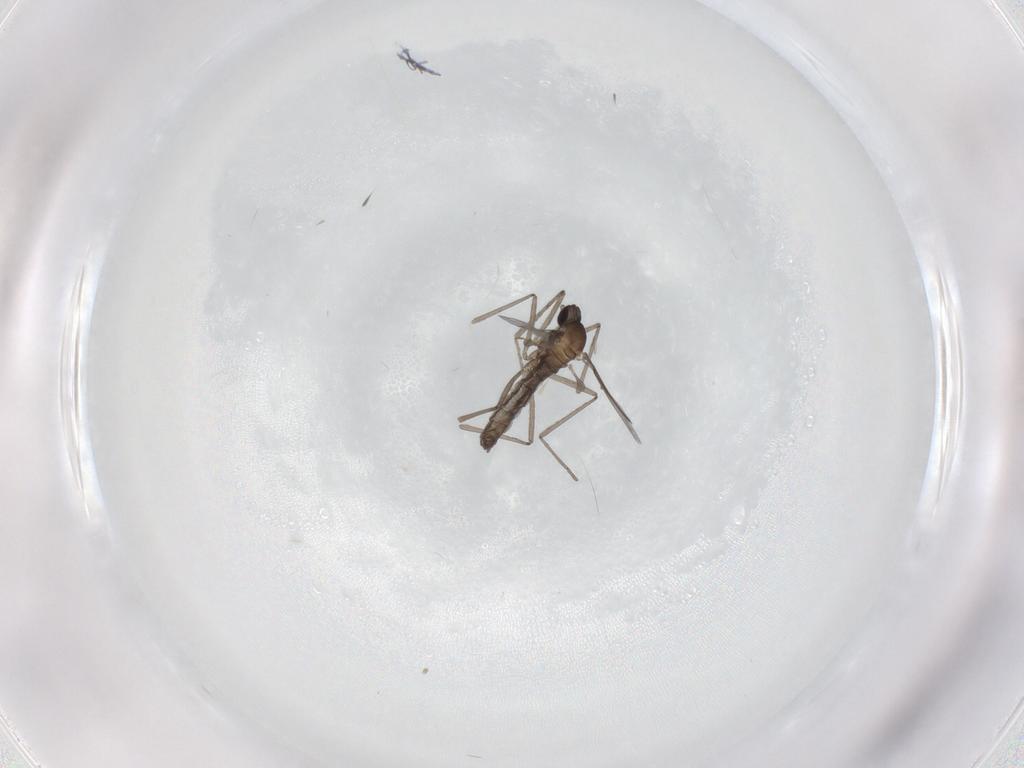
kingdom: Animalia
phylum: Arthropoda
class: Insecta
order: Diptera
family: Cecidomyiidae
